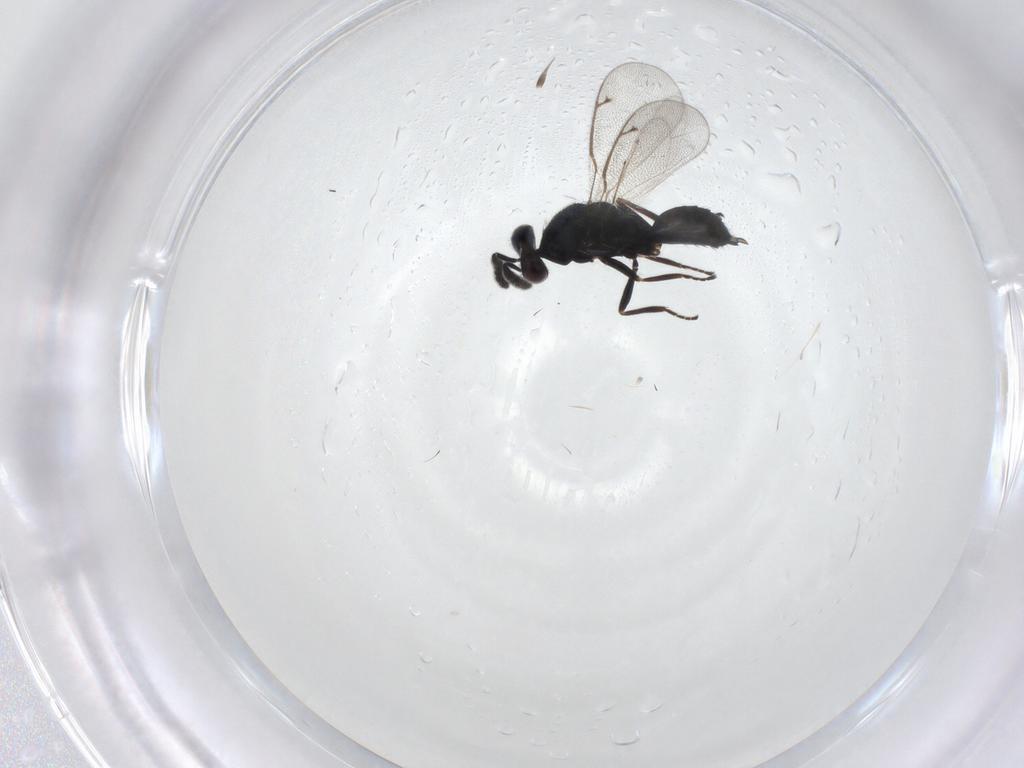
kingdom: Animalia
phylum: Arthropoda
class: Insecta
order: Hymenoptera
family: Eulophidae
